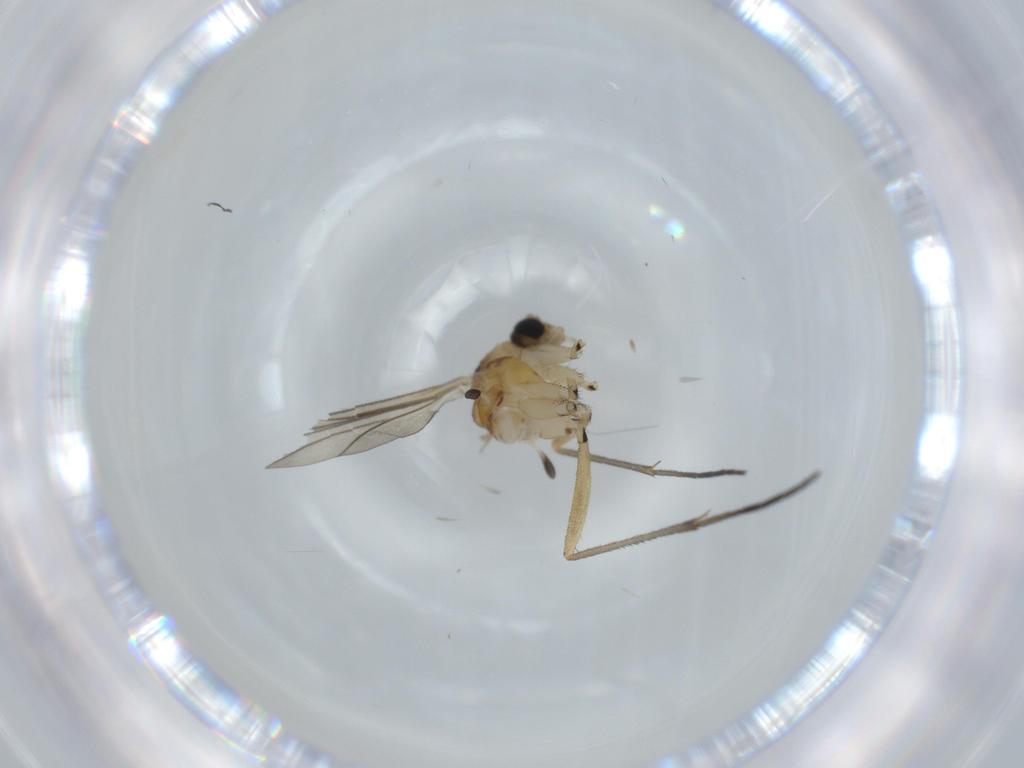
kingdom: Animalia
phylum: Arthropoda
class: Insecta
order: Diptera
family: Sciaridae
